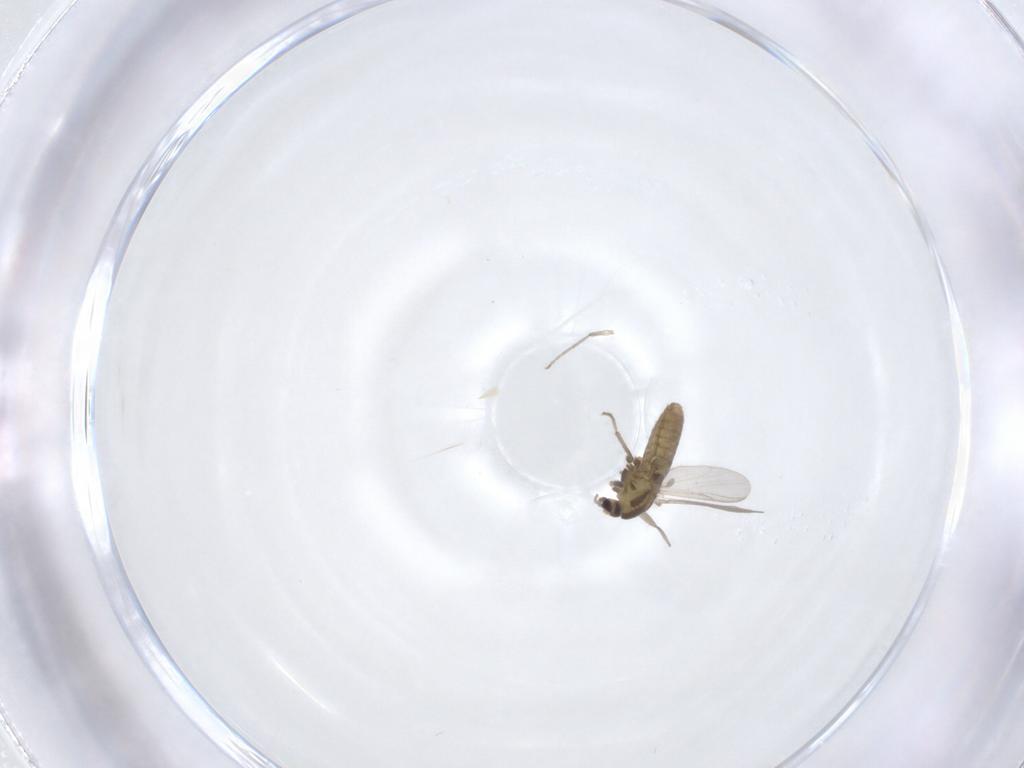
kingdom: Animalia
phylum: Arthropoda
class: Insecta
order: Diptera
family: Chironomidae
